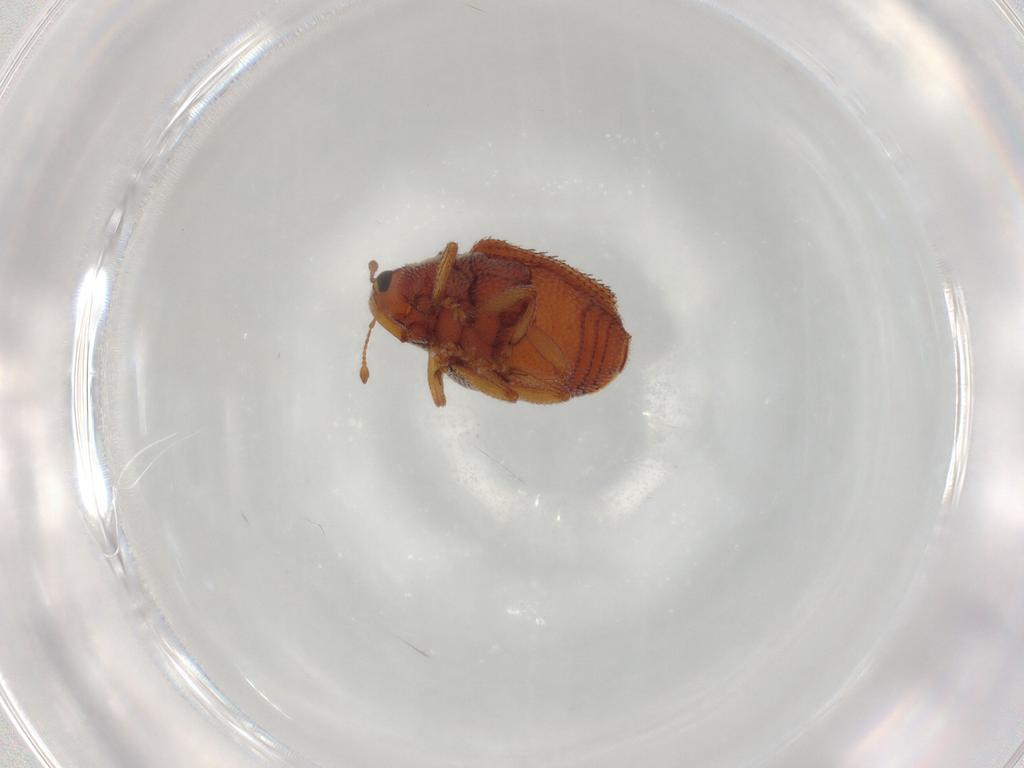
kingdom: Animalia
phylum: Arthropoda
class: Insecta
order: Coleoptera
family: Curculionidae
